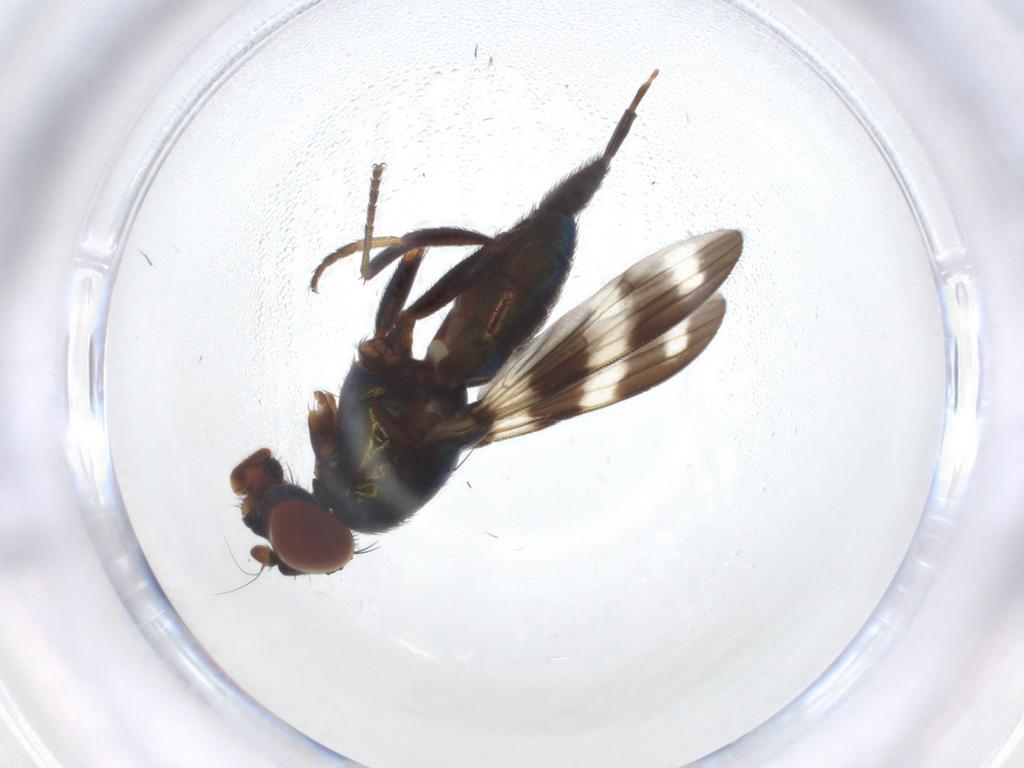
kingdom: Animalia
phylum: Arthropoda
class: Insecta
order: Diptera
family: Ulidiidae
